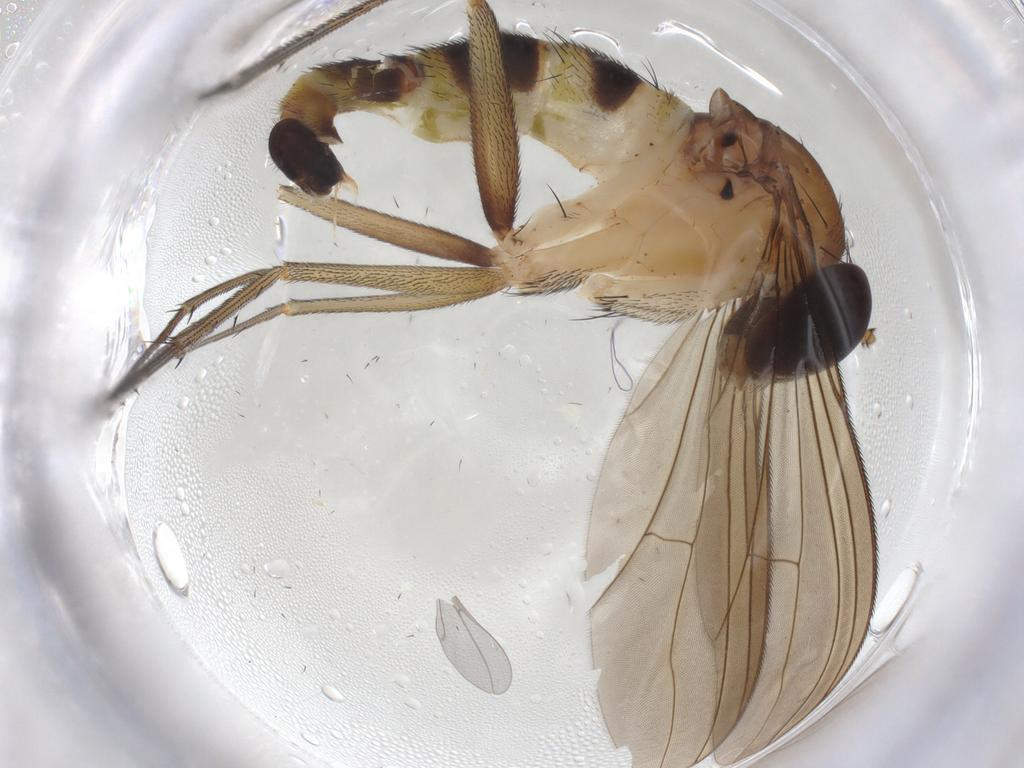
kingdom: Animalia
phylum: Arthropoda
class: Insecta
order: Diptera
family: Dolichopodidae
